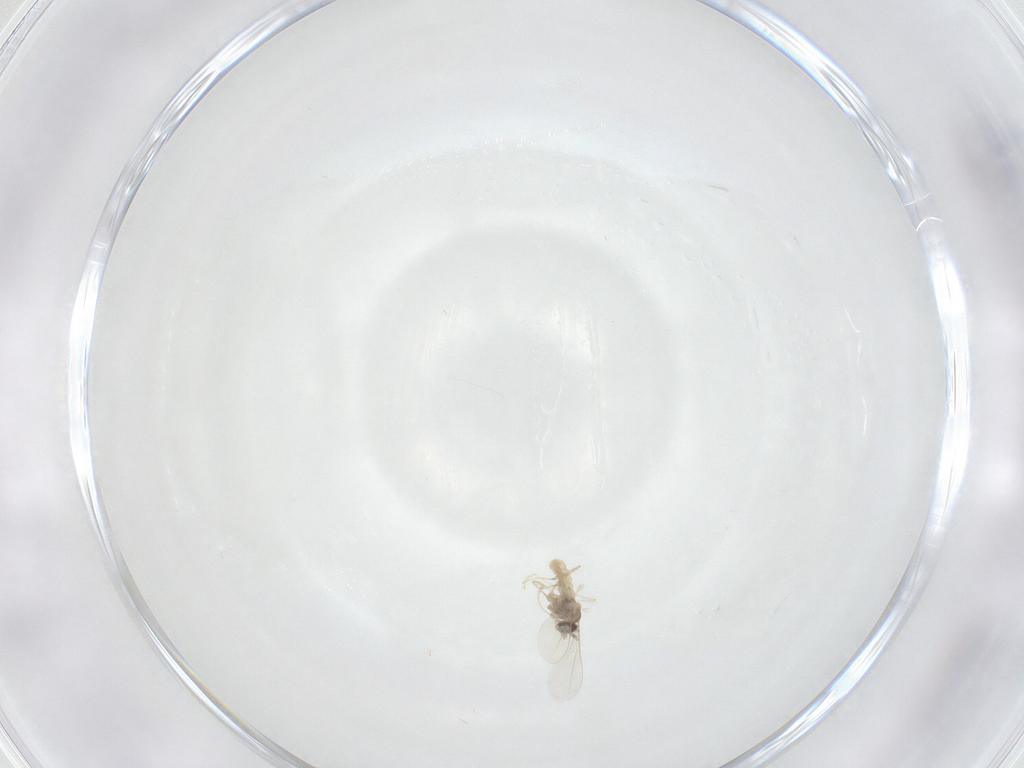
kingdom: Animalia
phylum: Arthropoda
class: Insecta
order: Diptera
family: Cecidomyiidae
